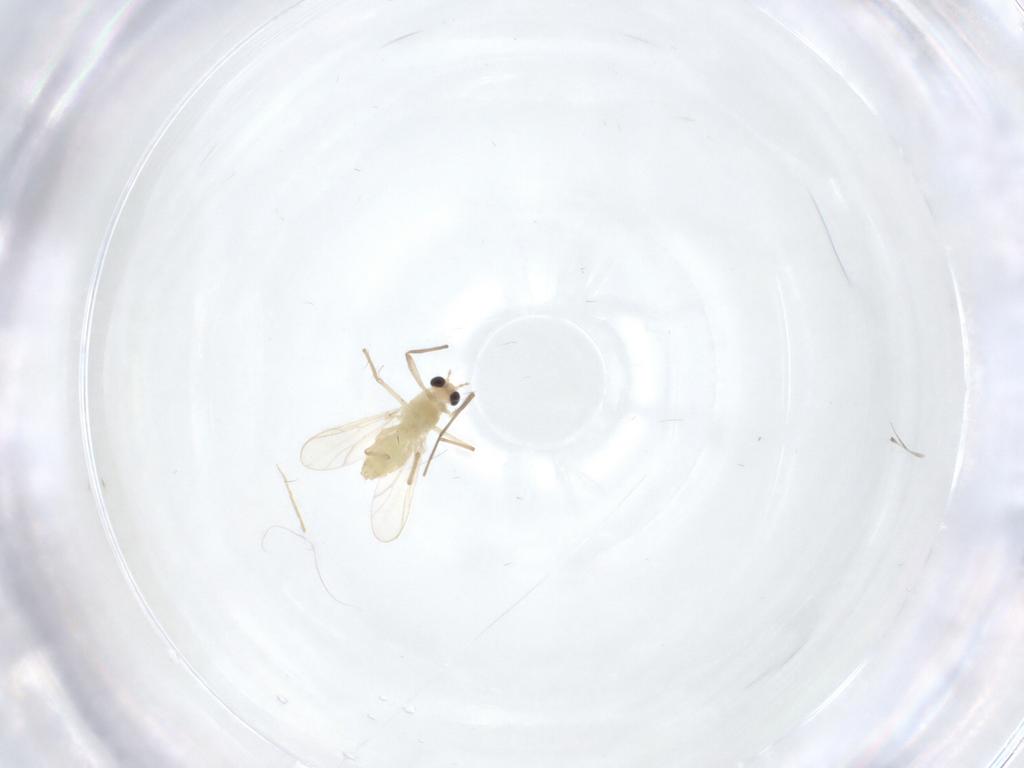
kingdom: Animalia
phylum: Arthropoda
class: Insecta
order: Diptera
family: Chironomidae
